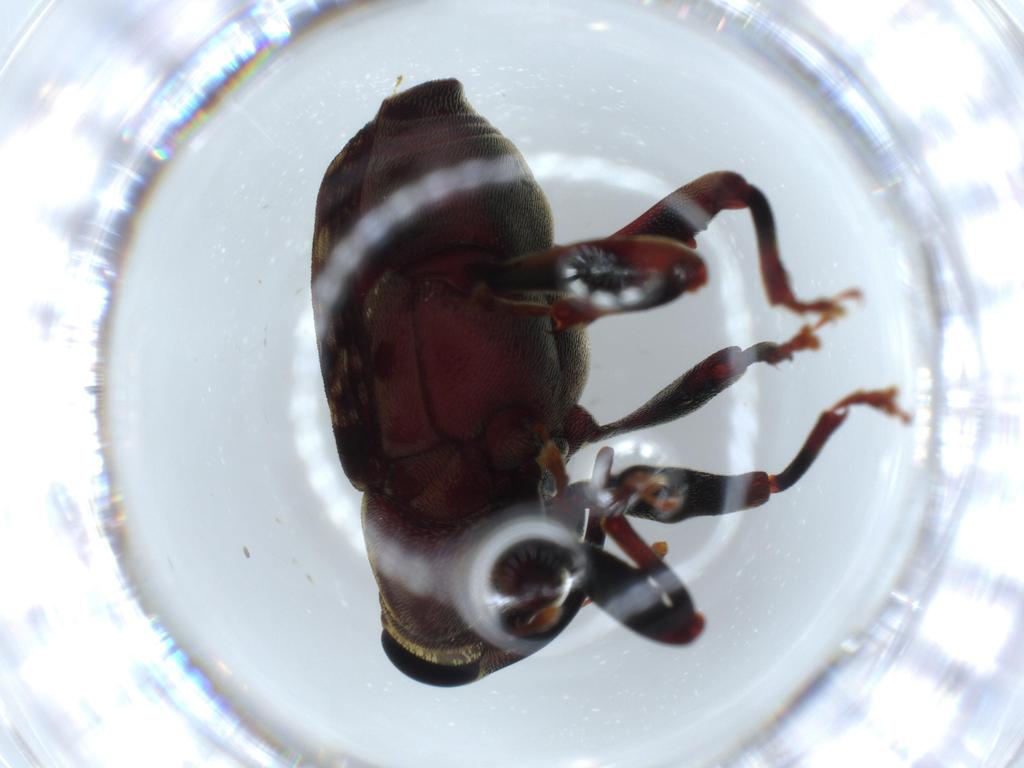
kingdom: Animalia
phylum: Arthropoda
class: Insecta
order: Coleoptera
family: Chrysomelidae
